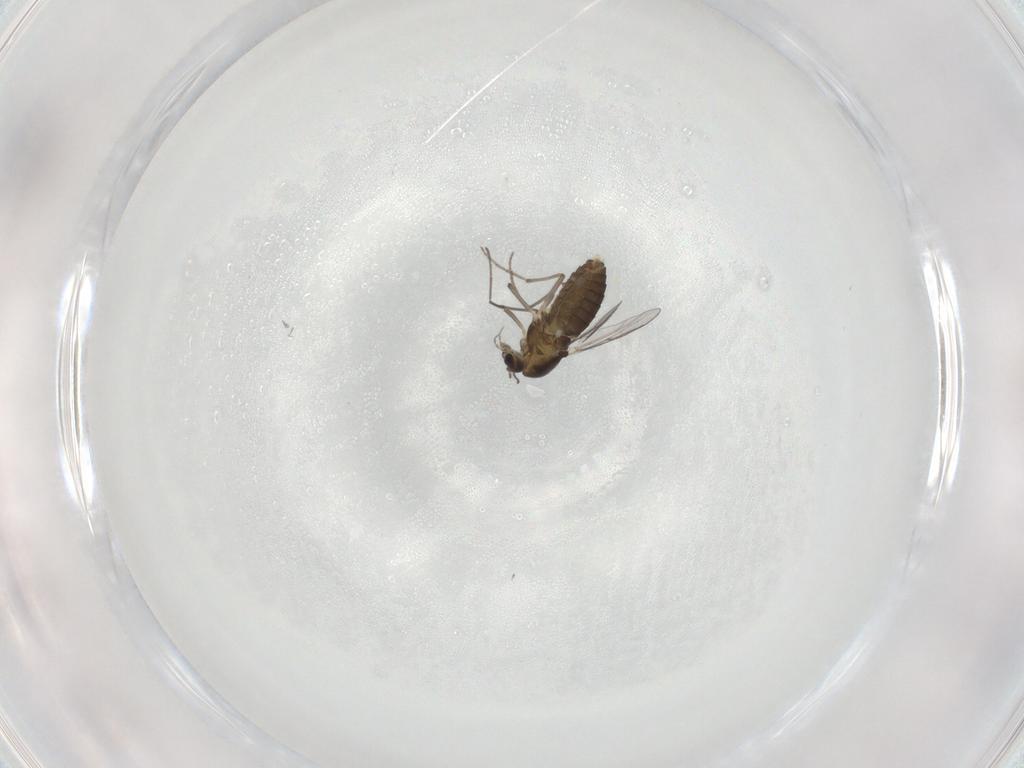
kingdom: Animalia
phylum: Arthropoda
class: Insecta
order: Diptera
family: Chironomidae
